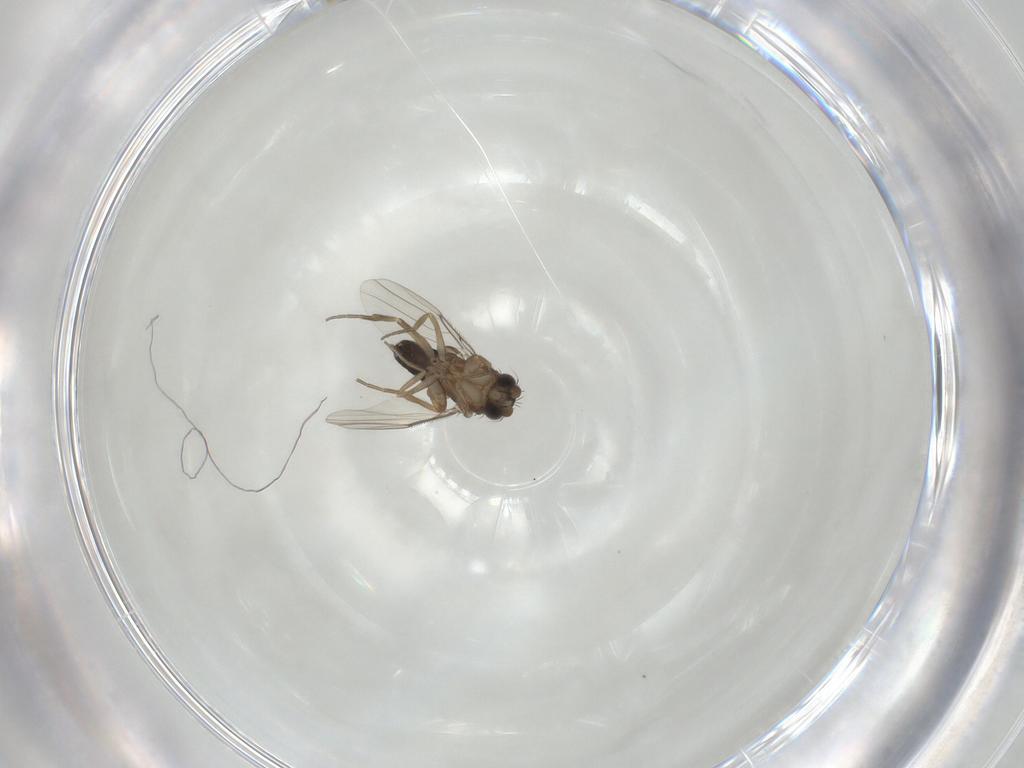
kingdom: Animalia
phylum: Arthropoda
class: Insecta
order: Diptera
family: Phoridae
